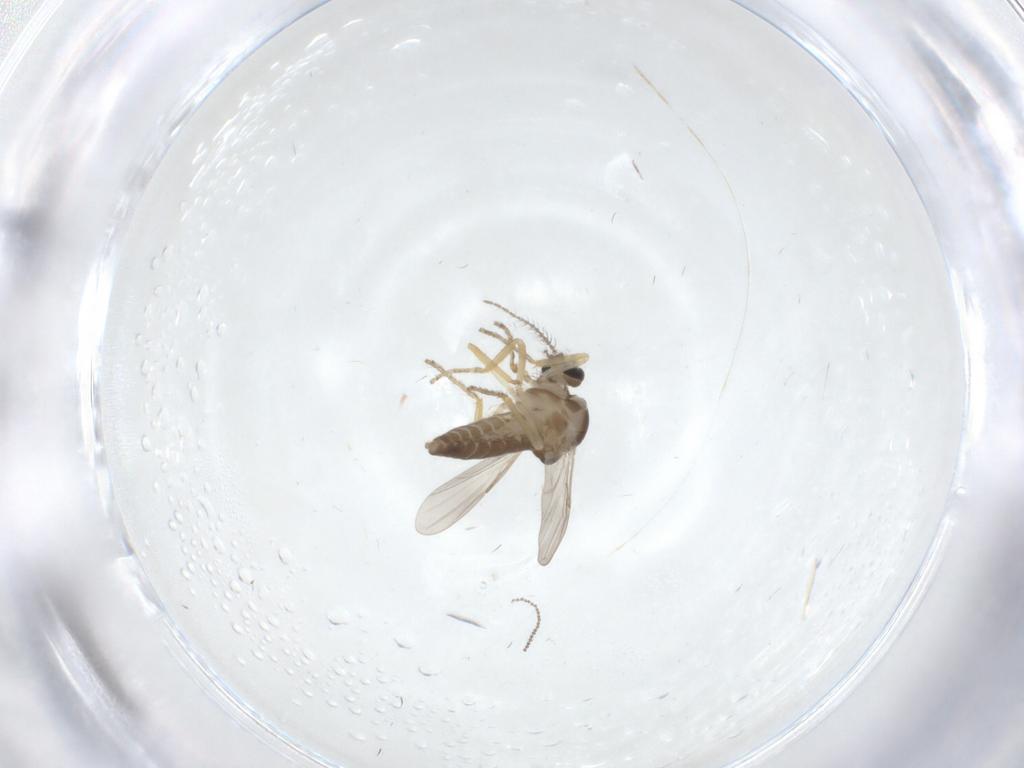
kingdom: Animalia
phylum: Arthropoda
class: Insecta
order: Diptera
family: Ceratopogonidae
